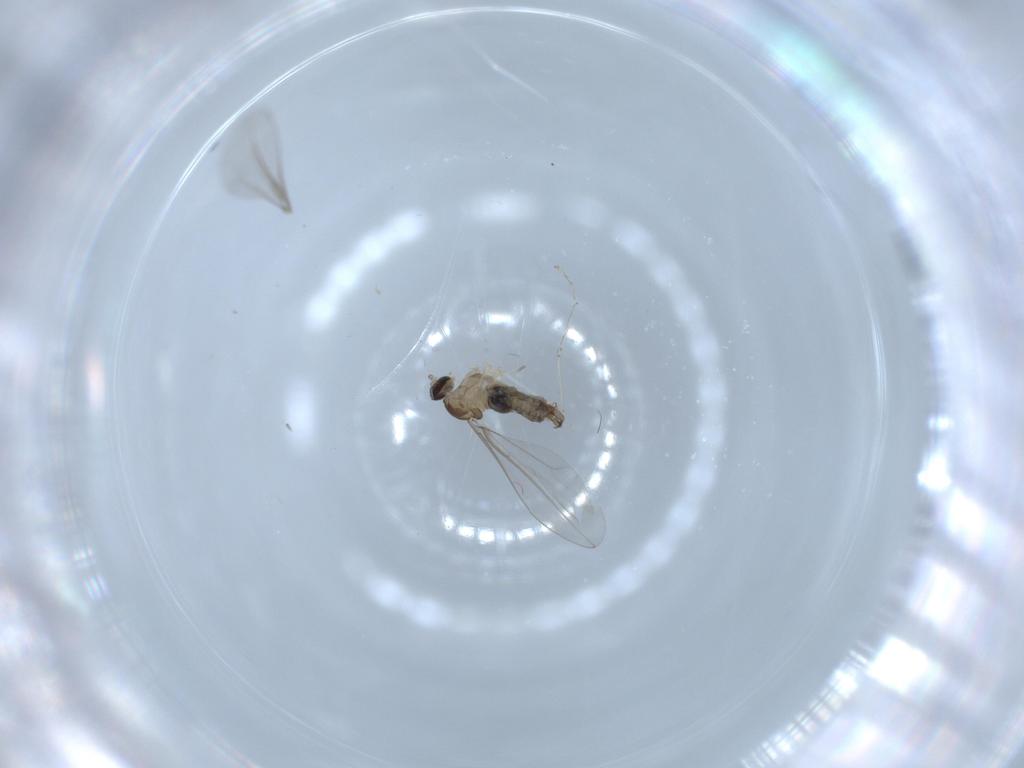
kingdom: Animalia
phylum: Arthropoda
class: Insecta
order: Diptera
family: Cecidomyiidae
